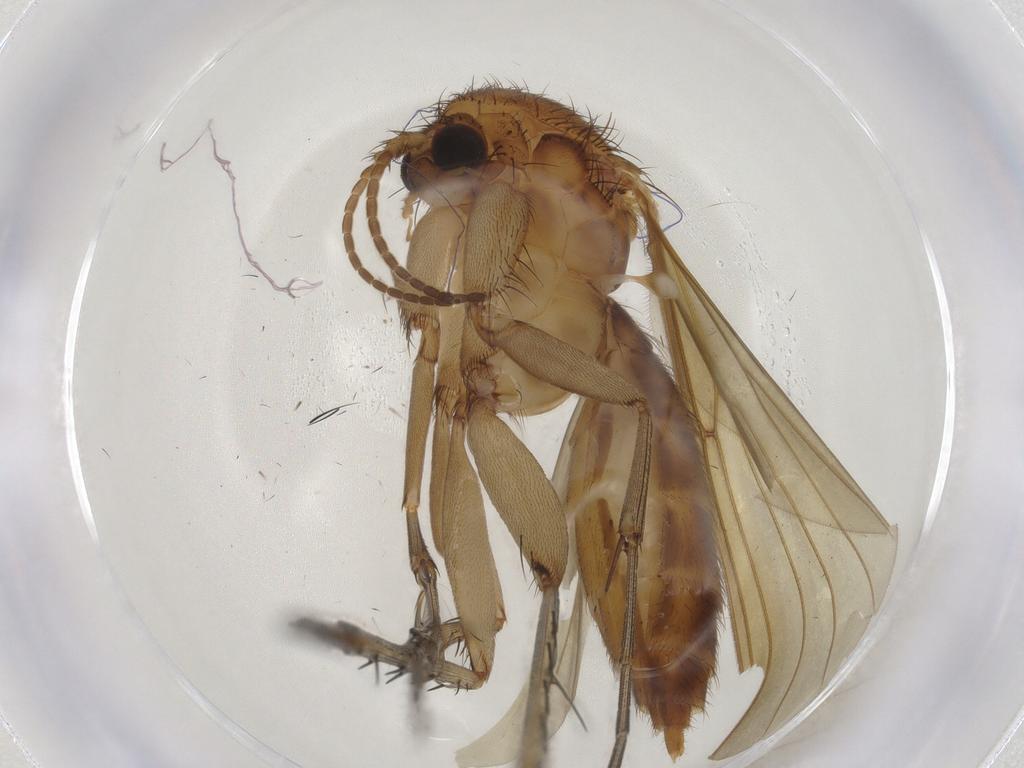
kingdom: Animalia
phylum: Arthropoda
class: Insecta
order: Diptera
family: Mycetophilidae
